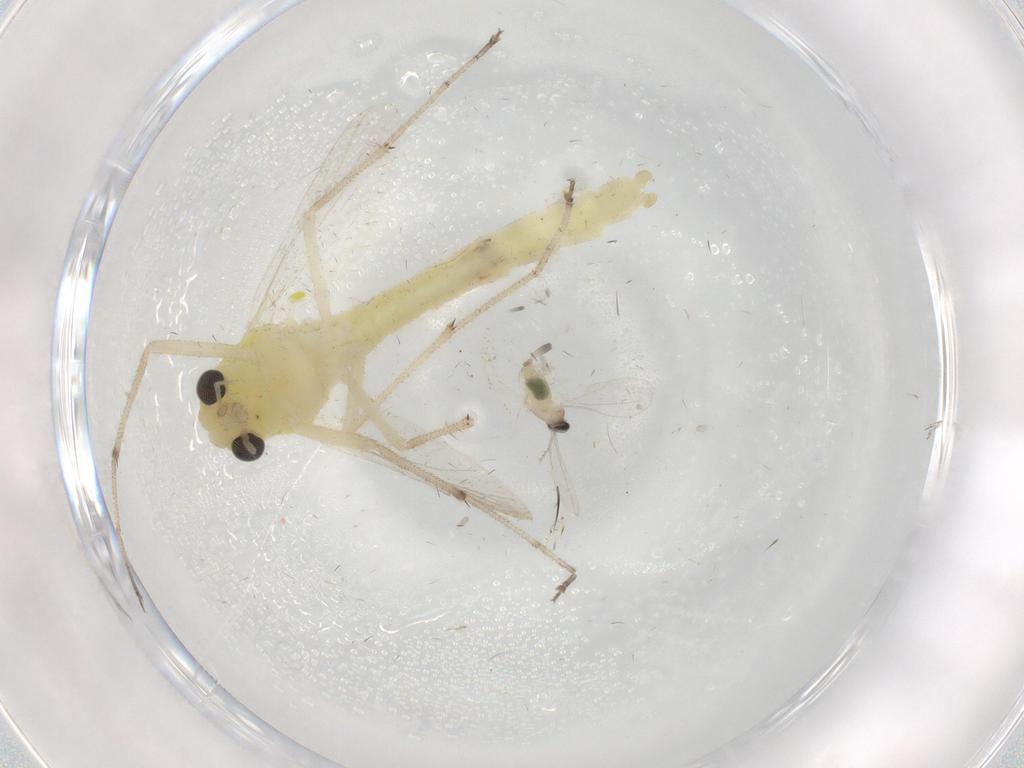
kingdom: Animalia
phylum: Arthropoda
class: Insecta
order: Diptera
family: Chironomidae
